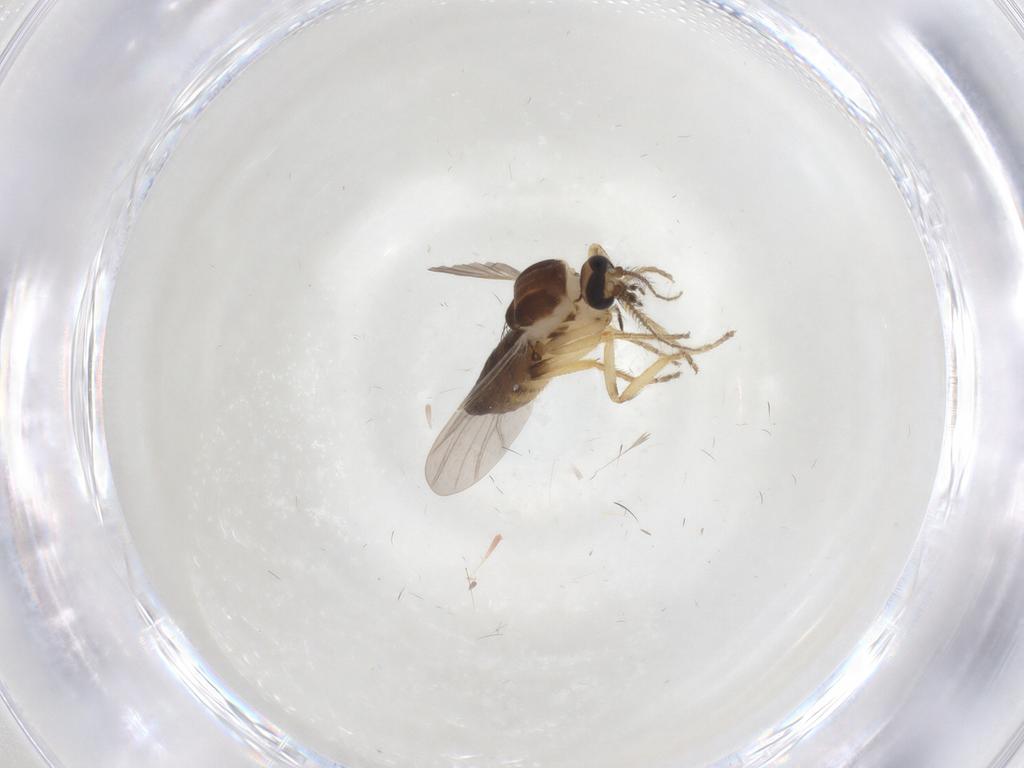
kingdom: Animalia
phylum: Arthropoda
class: Insecta
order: Diptera
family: Ceratopogonidae
